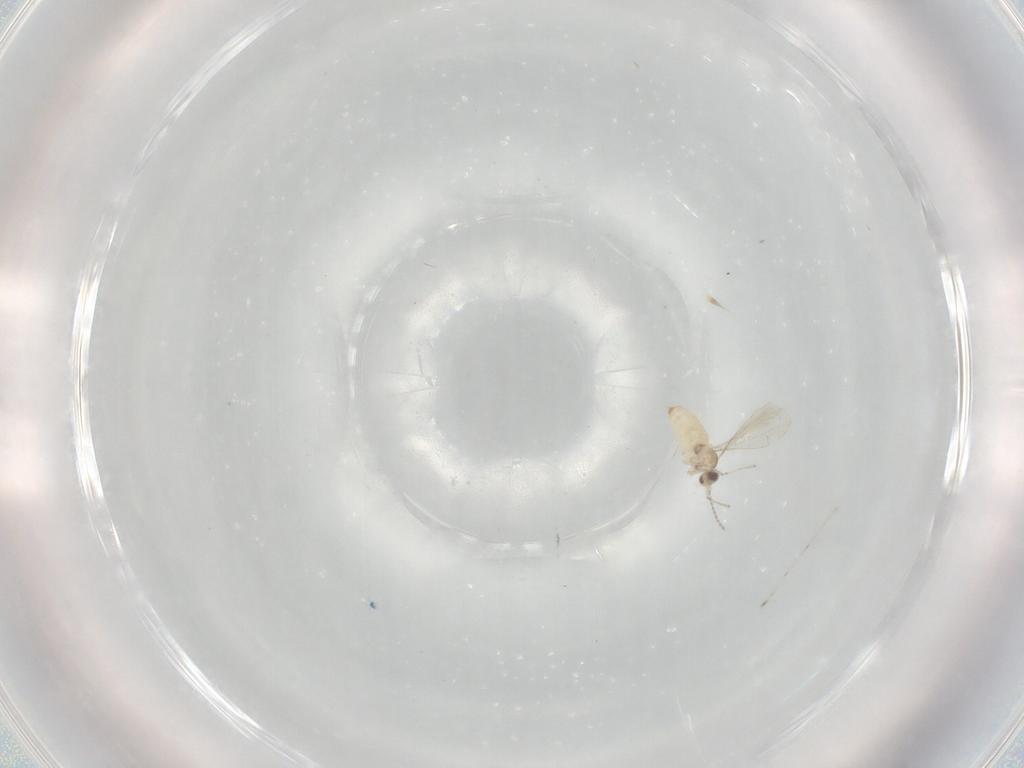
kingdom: Animalia
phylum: Arthropoda
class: Insecta
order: Diptera
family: Cecidomyiidae
